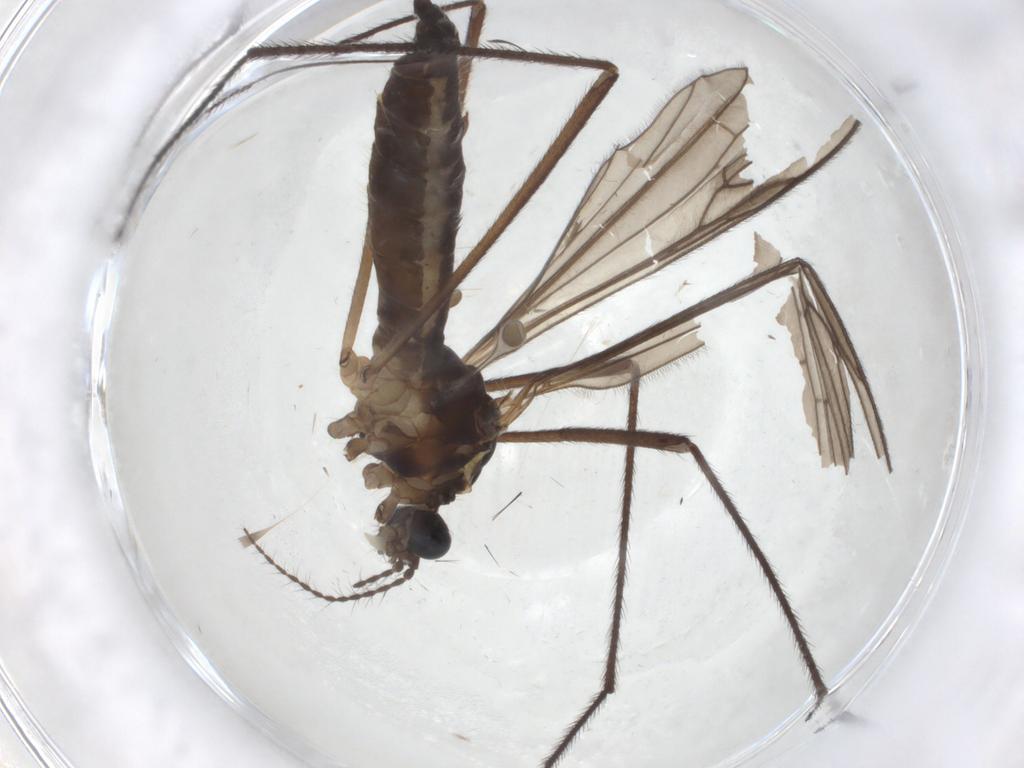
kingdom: Animalia
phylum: Arthropoda
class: Insecta
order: Diptera
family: Limoniidae
